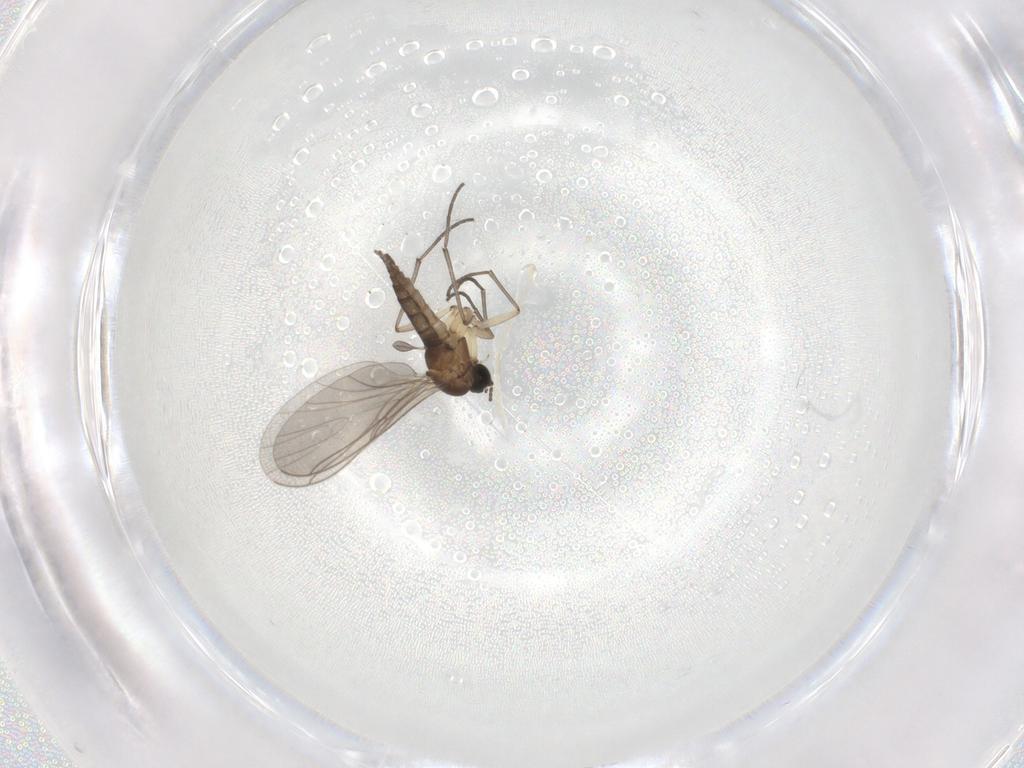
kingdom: Animalia
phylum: Arthropoda
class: Insecta
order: Diptera
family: Sciaridae
